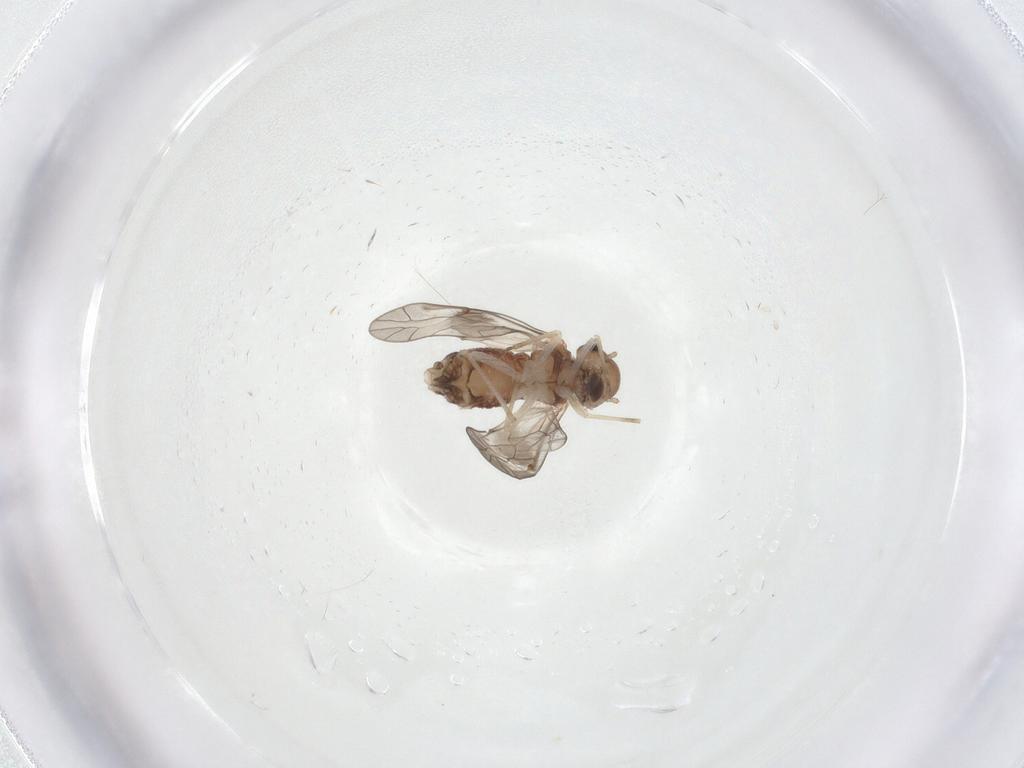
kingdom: Animalia
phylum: Arthropoda
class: Insecta
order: Psocodea
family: Peripsocidae
